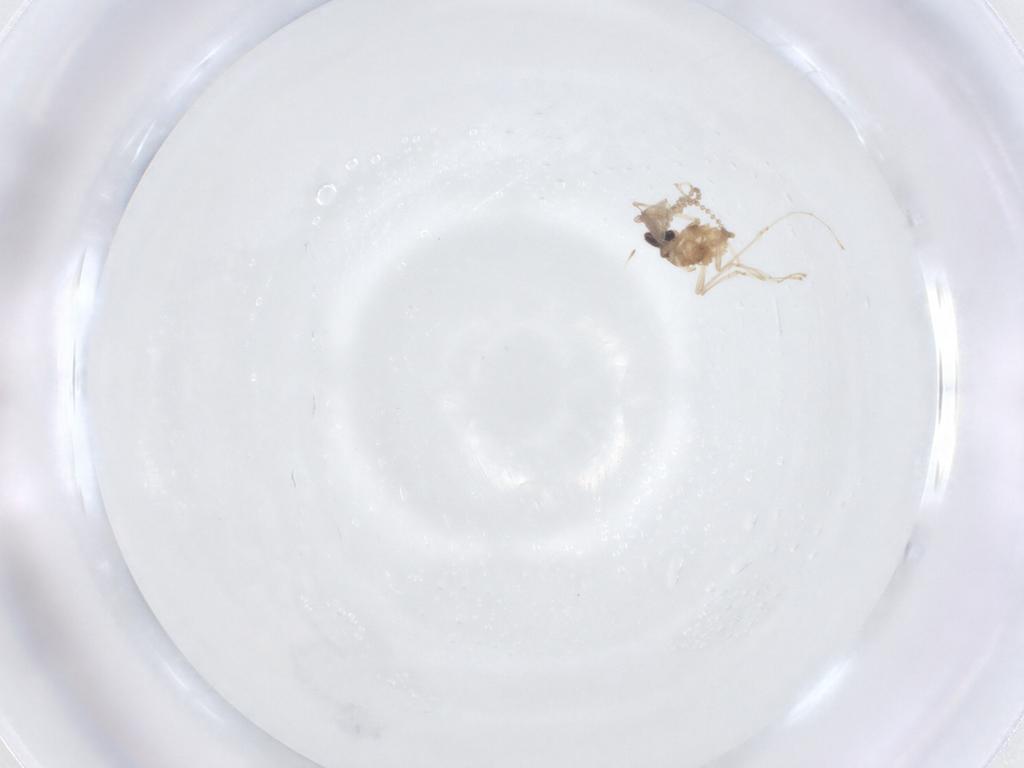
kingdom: Animalia
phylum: Arthropoda
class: Insecta
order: Diptera
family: Cecidomyiidae
